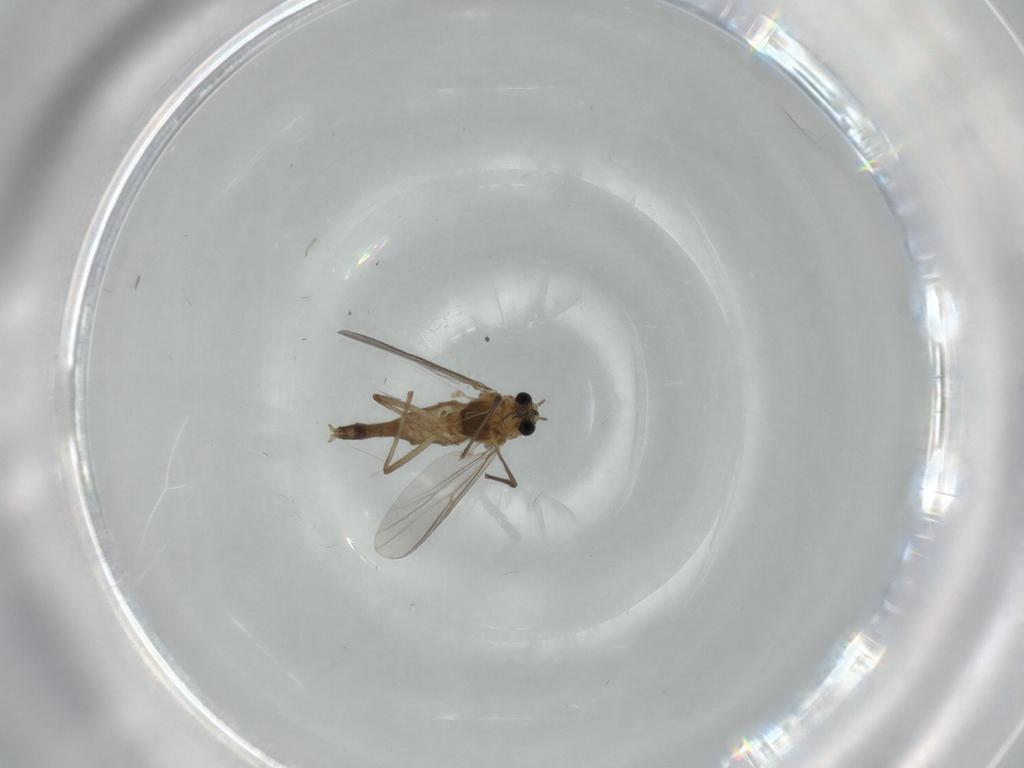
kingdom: Animalia
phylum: Arthropoda
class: Insecta
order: Diptera
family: Chironomidae
